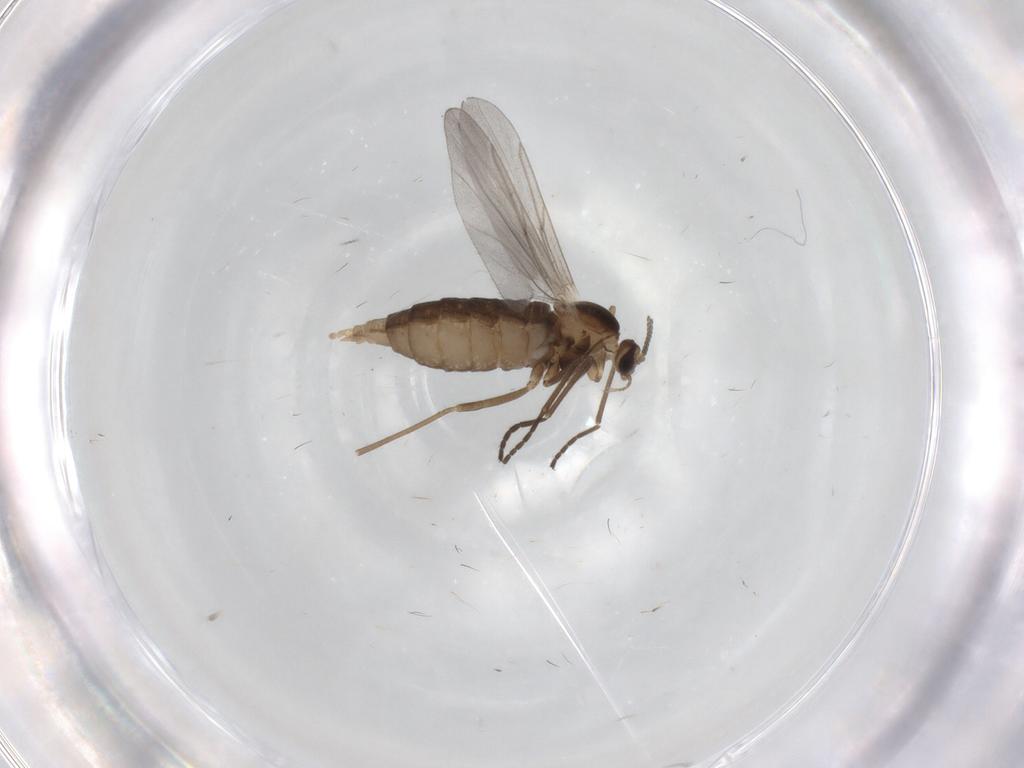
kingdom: Animalia
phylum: Arthropoda
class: Insecta
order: Diptera
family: Cecidomyiidae
